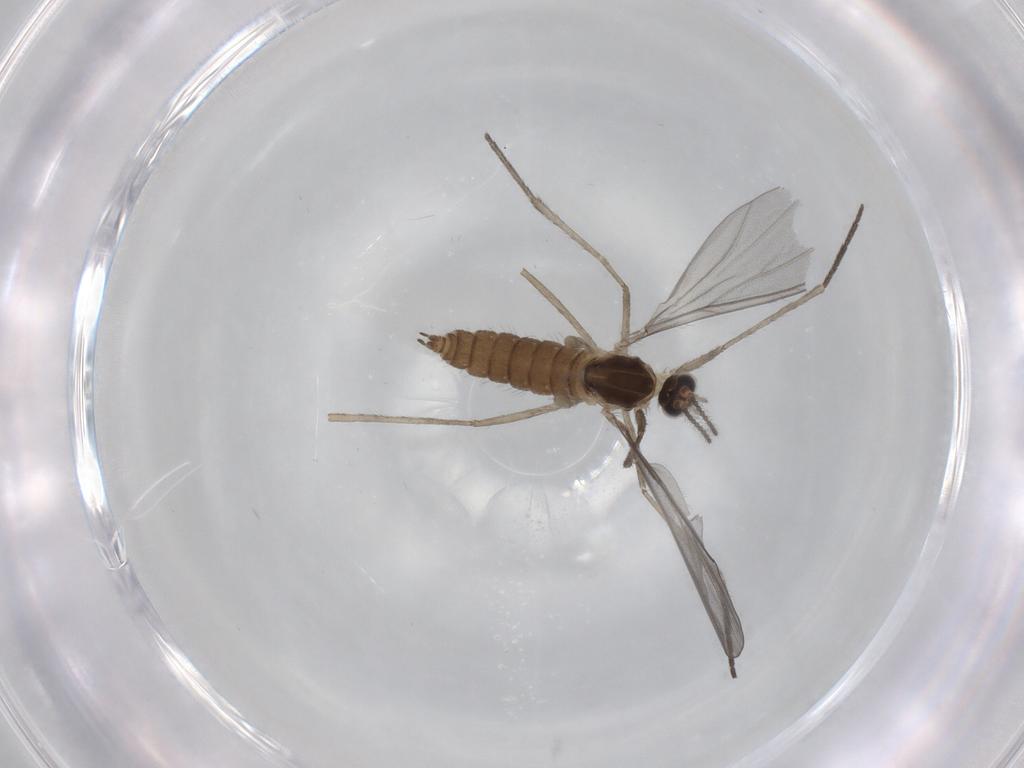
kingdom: Animalia
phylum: Arthropoda
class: Insecta
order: Diptera
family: Cecidomyiidae
